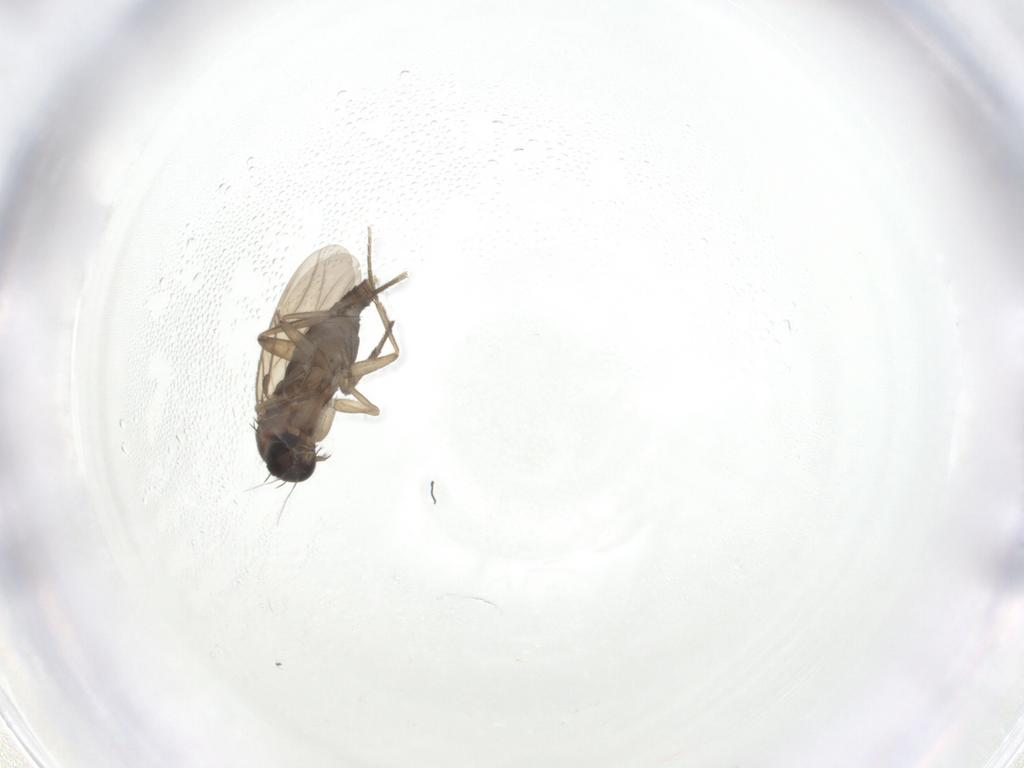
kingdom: Animalia
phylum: Arthropoda
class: Insecta
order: Diptera
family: Phoridae
